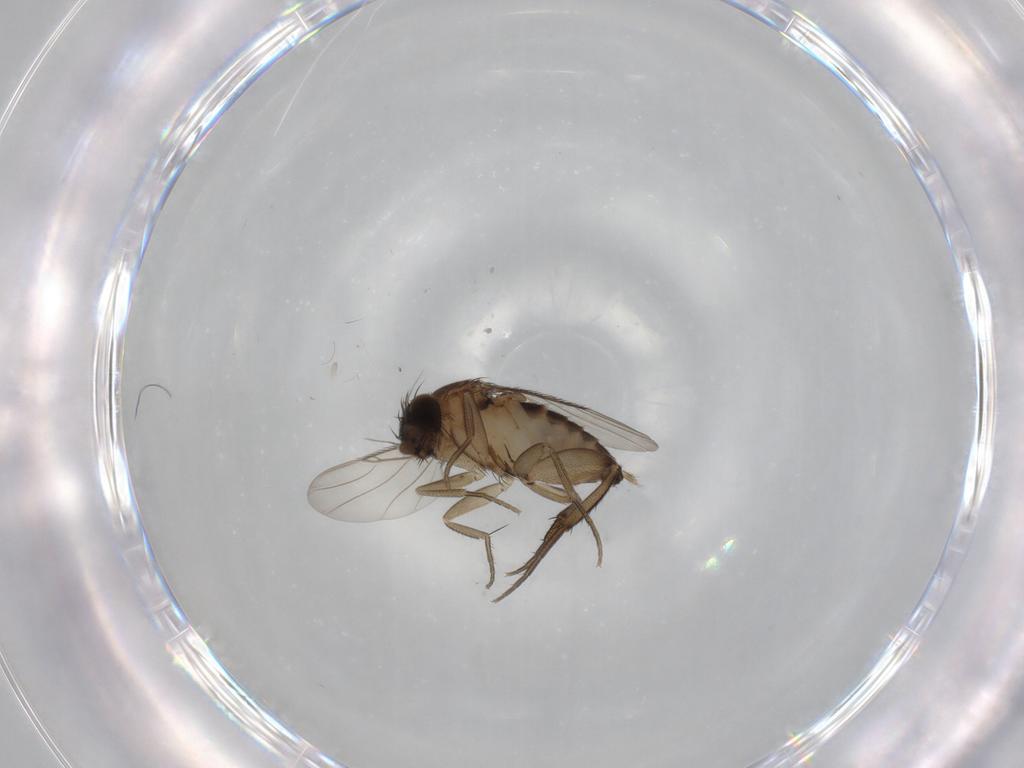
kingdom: Animalia
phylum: Arthropoda
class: Insecta
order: Diptera
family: Phoridae
